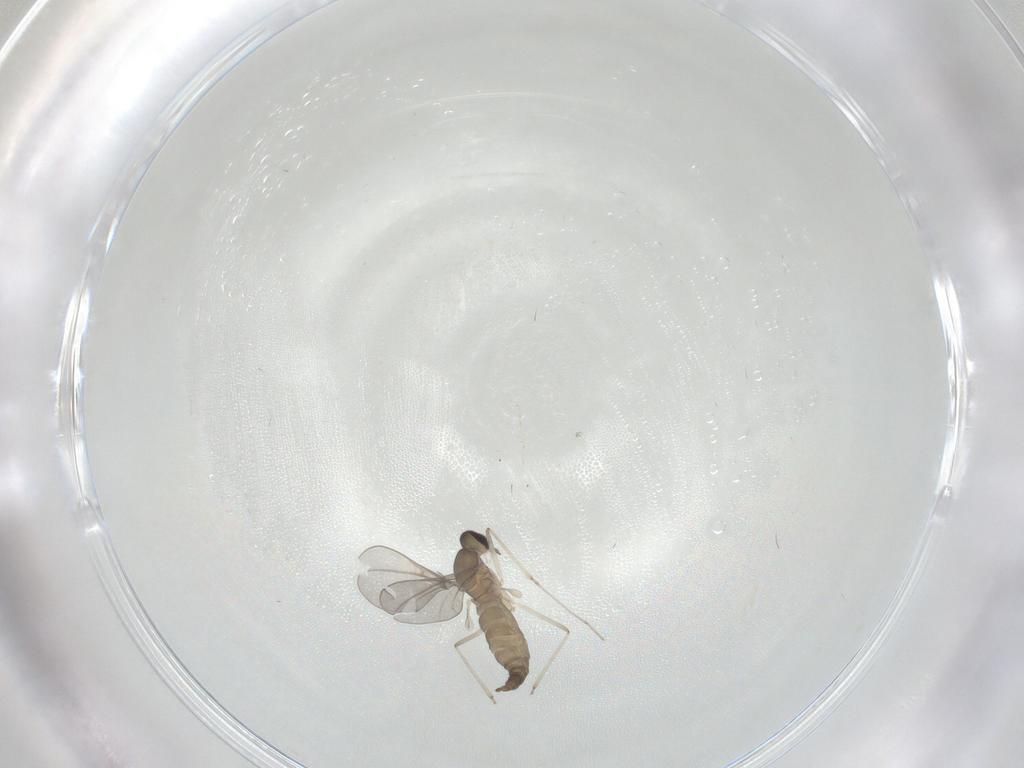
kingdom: Animalia
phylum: Arthropoda
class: Insecta
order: Diptera
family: Cecidomyiidae
